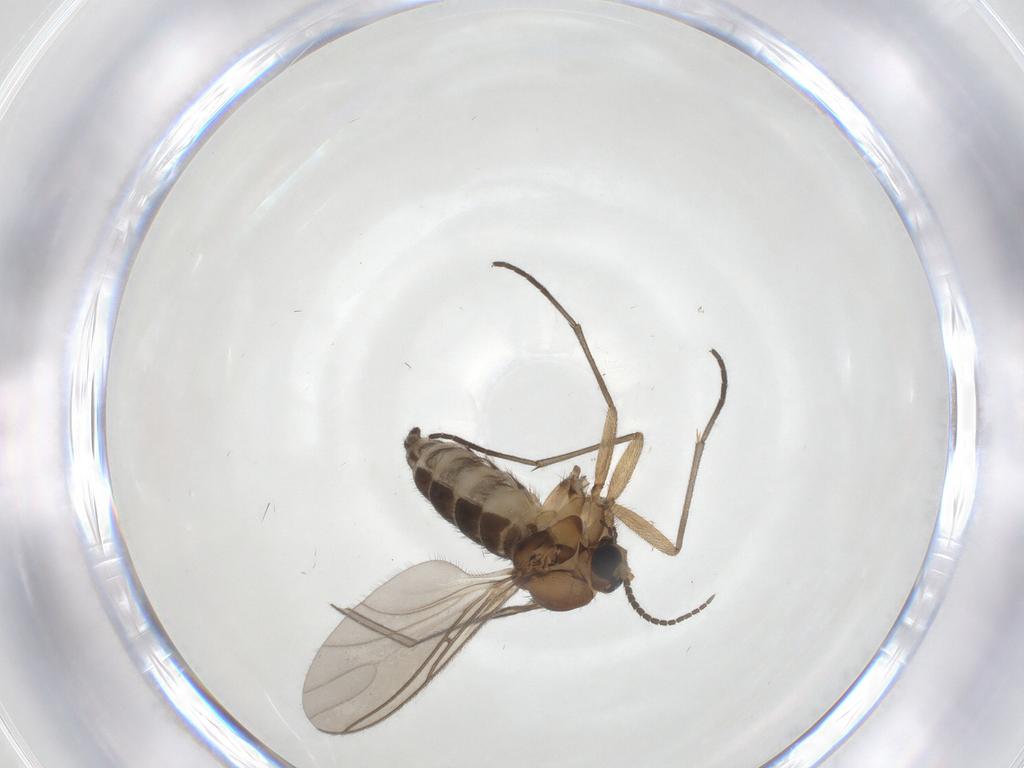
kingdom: Animalia
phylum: Arthropoda
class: Insecta
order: Diptera
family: Sciaridae
